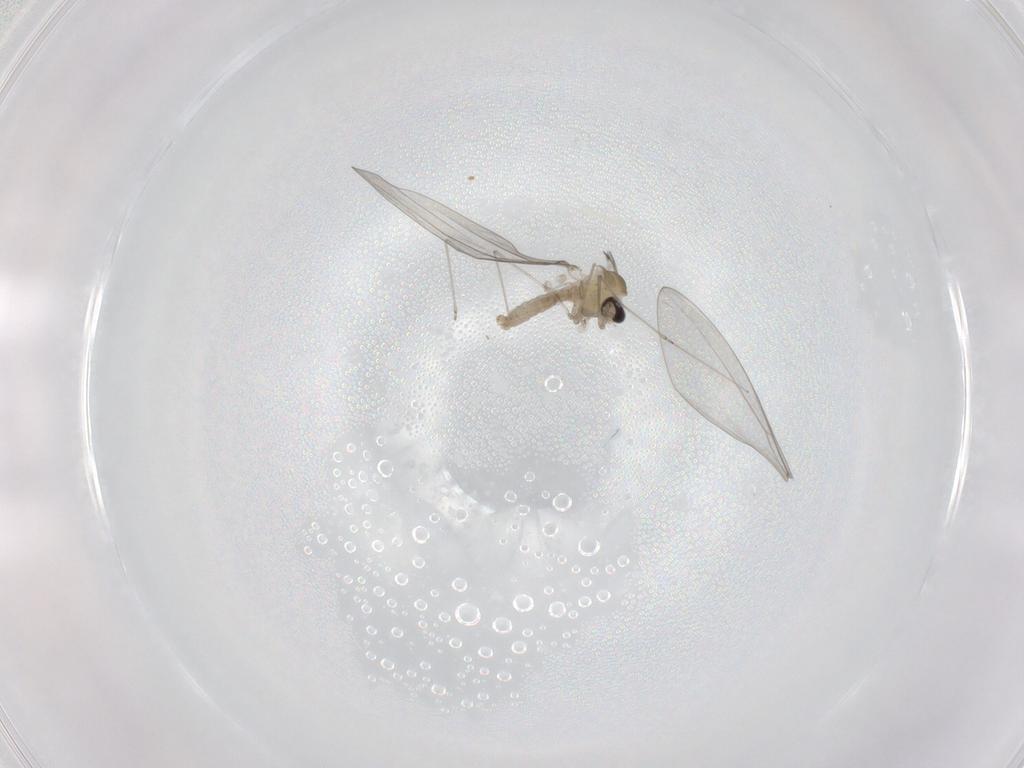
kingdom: Animalia
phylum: Arthropoda
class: Insecta
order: Diptera
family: Cecidomyiidae
